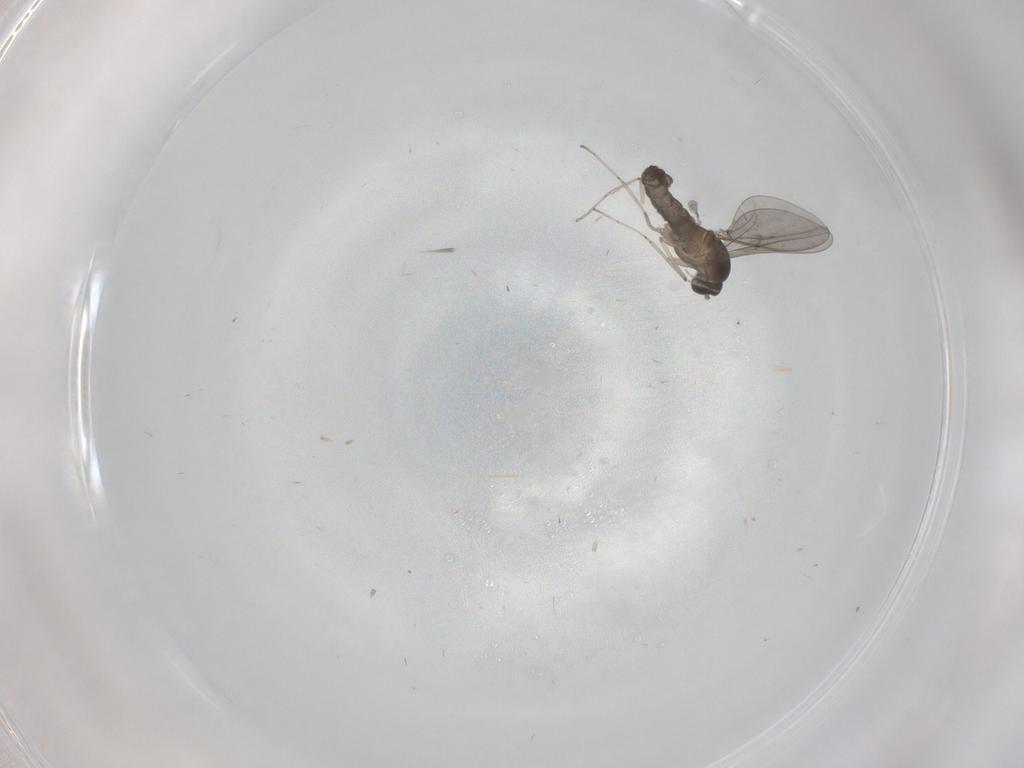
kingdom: Animalia
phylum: Arthropoda
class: Insecta
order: Diptera
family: Cecidomyiidae
